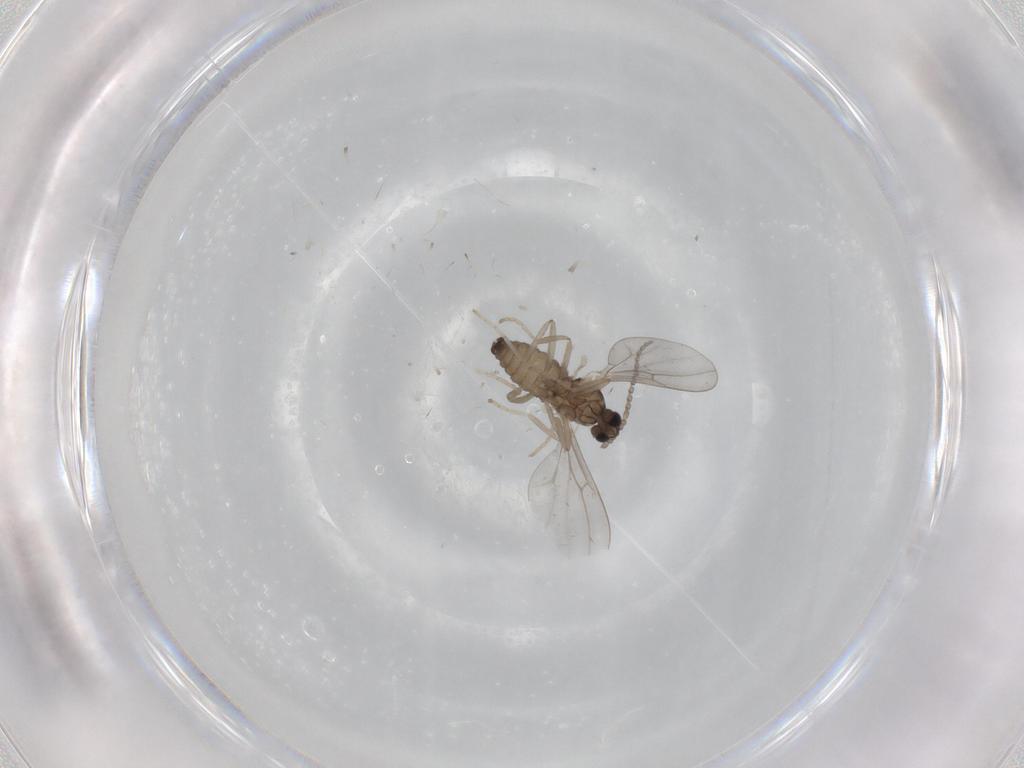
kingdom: Animalia
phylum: Arthropoda
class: Insecta
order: Diptera
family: Cecidomyiidae
